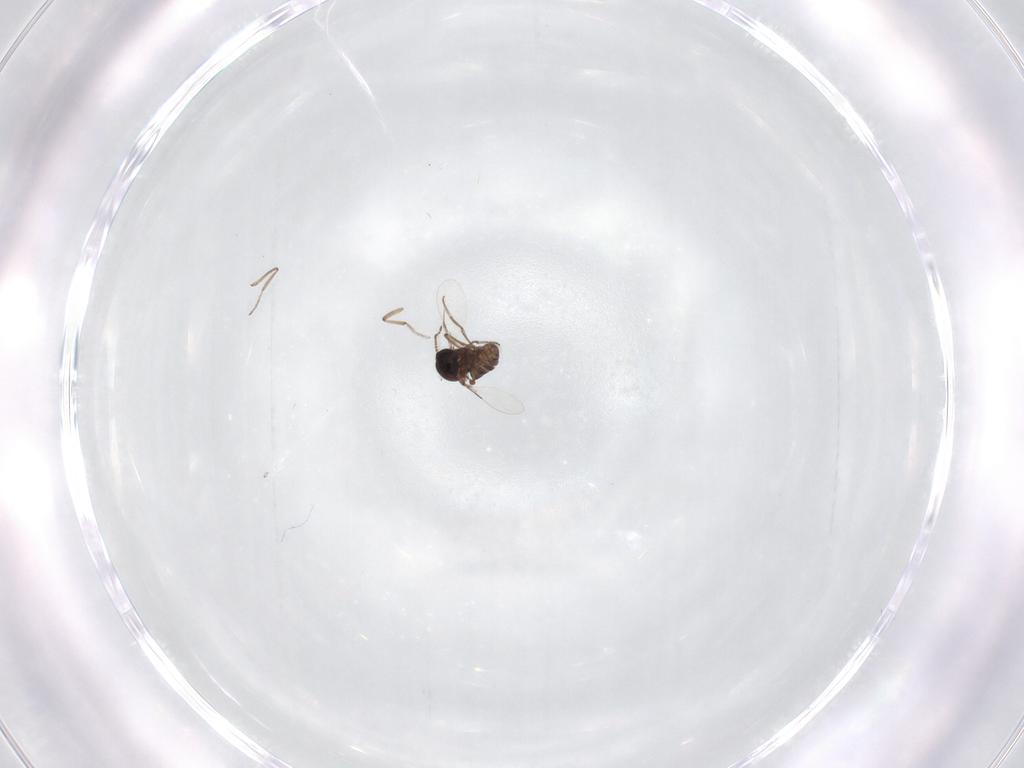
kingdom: Animalia
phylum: Arthropoda
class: Insecta
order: Diptera
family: Ceratopogonidae
